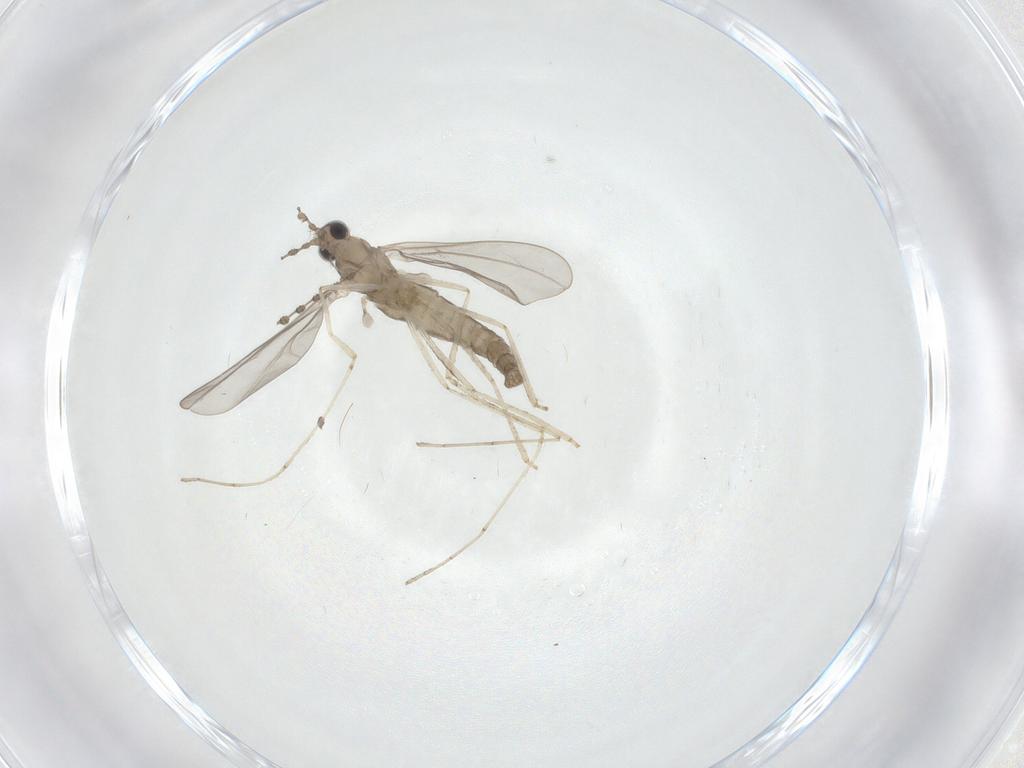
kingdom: Animalia
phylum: Arthropoda
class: Insecta
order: Diptera
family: Cecidomyiidae
